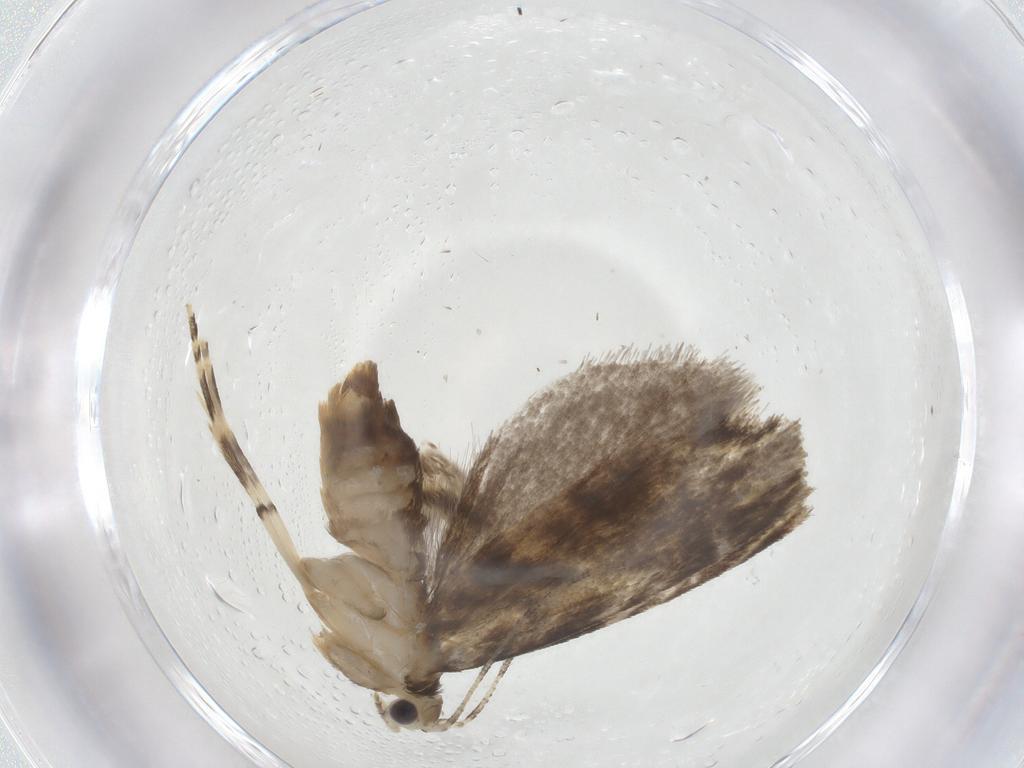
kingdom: Animalia
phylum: Arthropoda
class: Insecta
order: Lepidoptera
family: Tineidae
